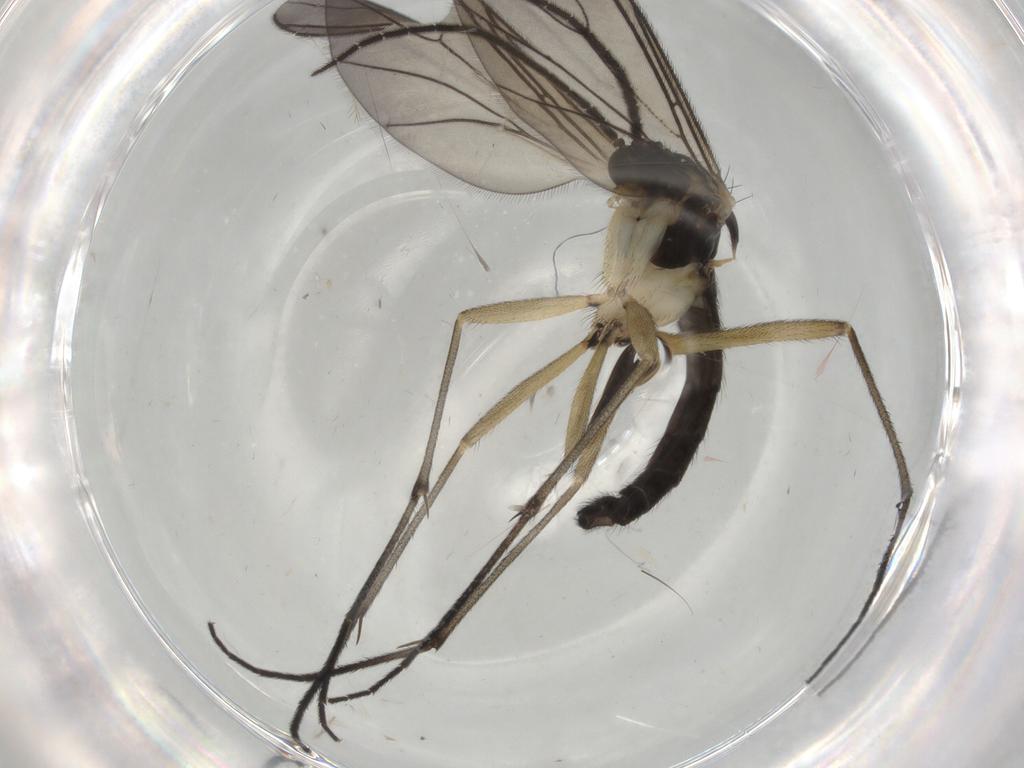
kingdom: Animalia
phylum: Arthropoda
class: Insecta
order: Diptera
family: Sciaridae
